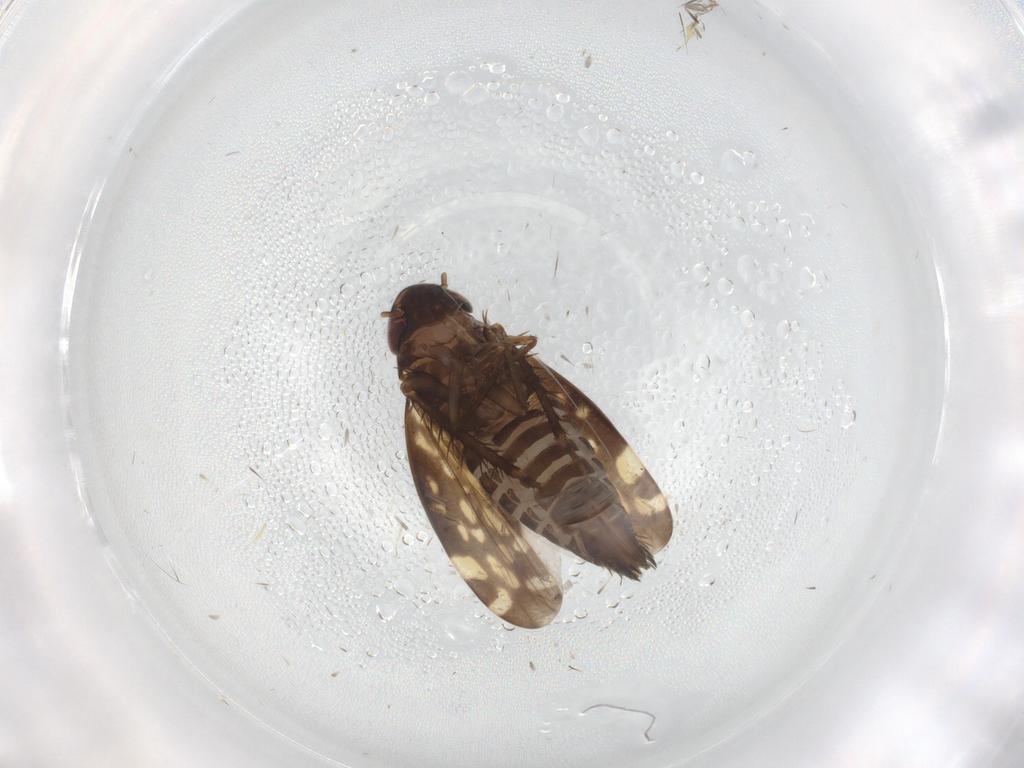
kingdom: Animalia
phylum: Arthropoda
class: Insecta
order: Hemiptera
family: Cicadellidae
